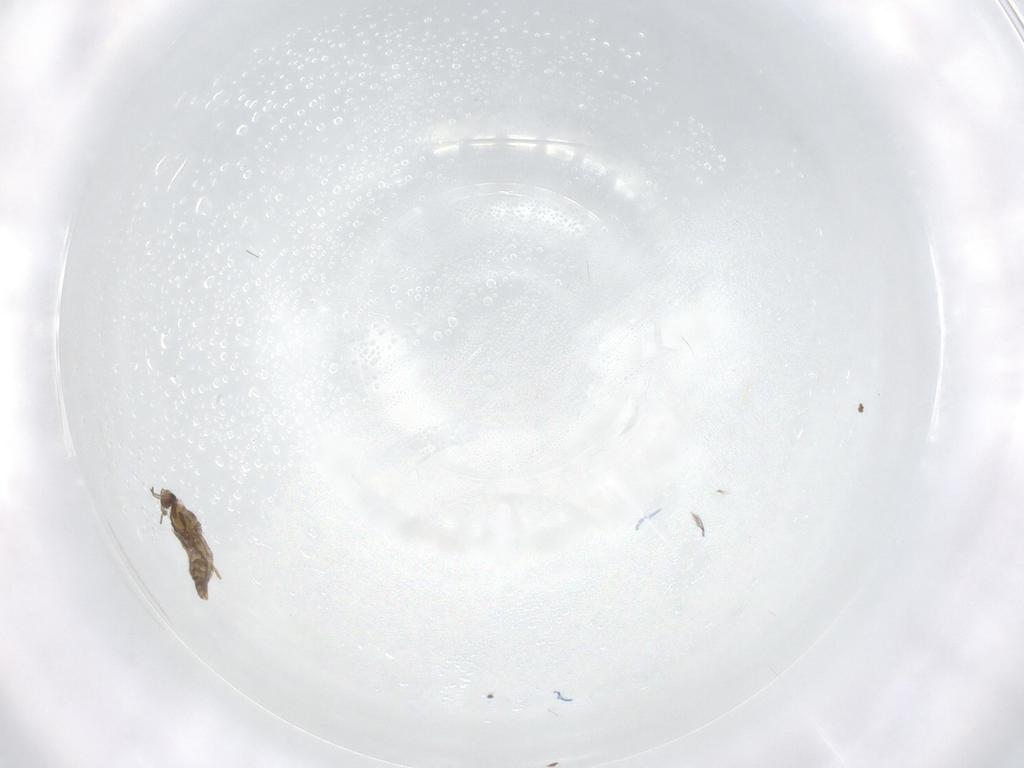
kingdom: Animalia
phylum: Arthropoda
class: Insecta
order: Diptera
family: Chironomidae
